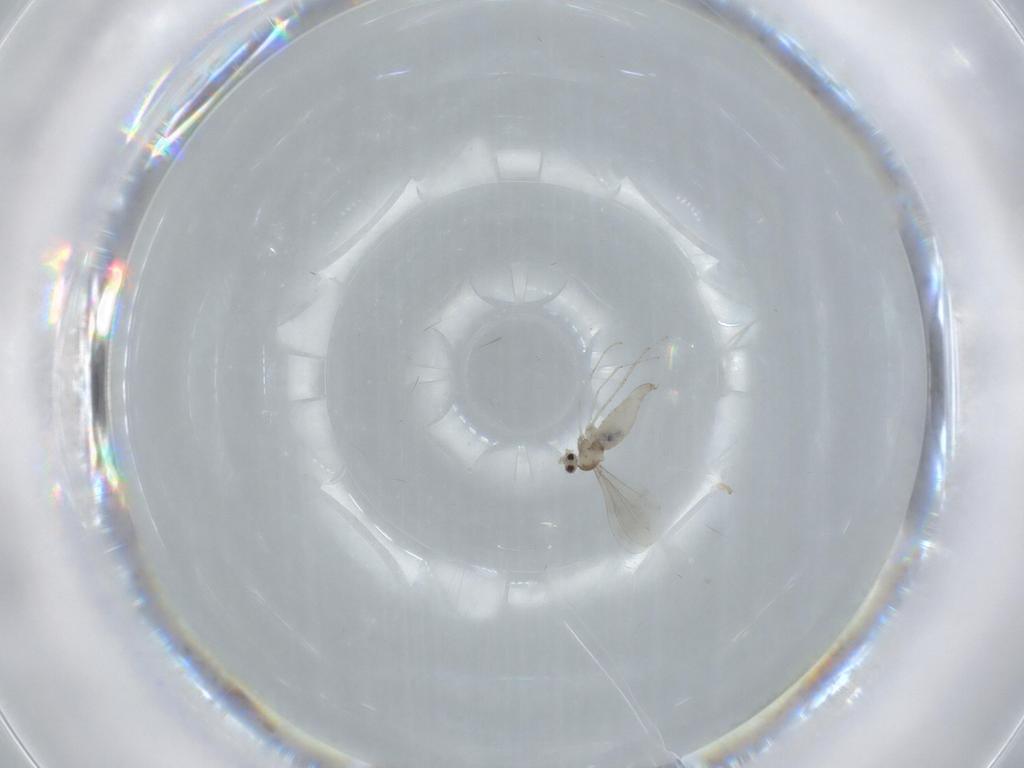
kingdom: Animalia
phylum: Arthropoda
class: Insecta
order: Diptera
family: Cecidomyiidae
